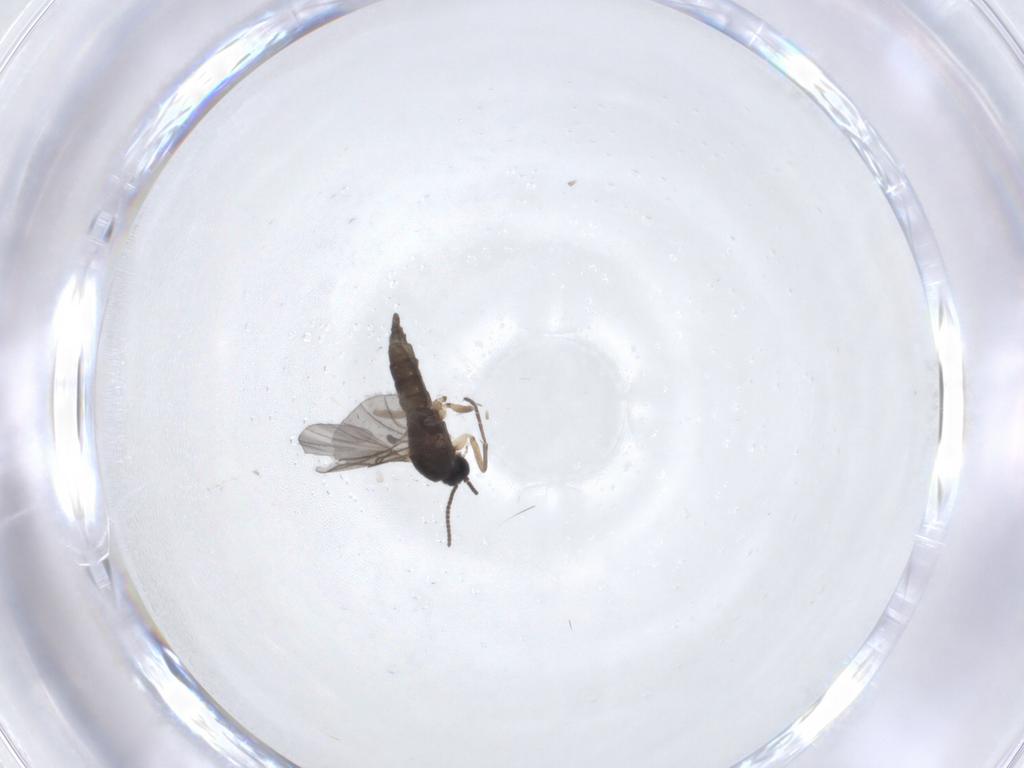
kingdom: Animalia
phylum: Arthropoda
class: Insecta
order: Diptera
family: Sciaridae
